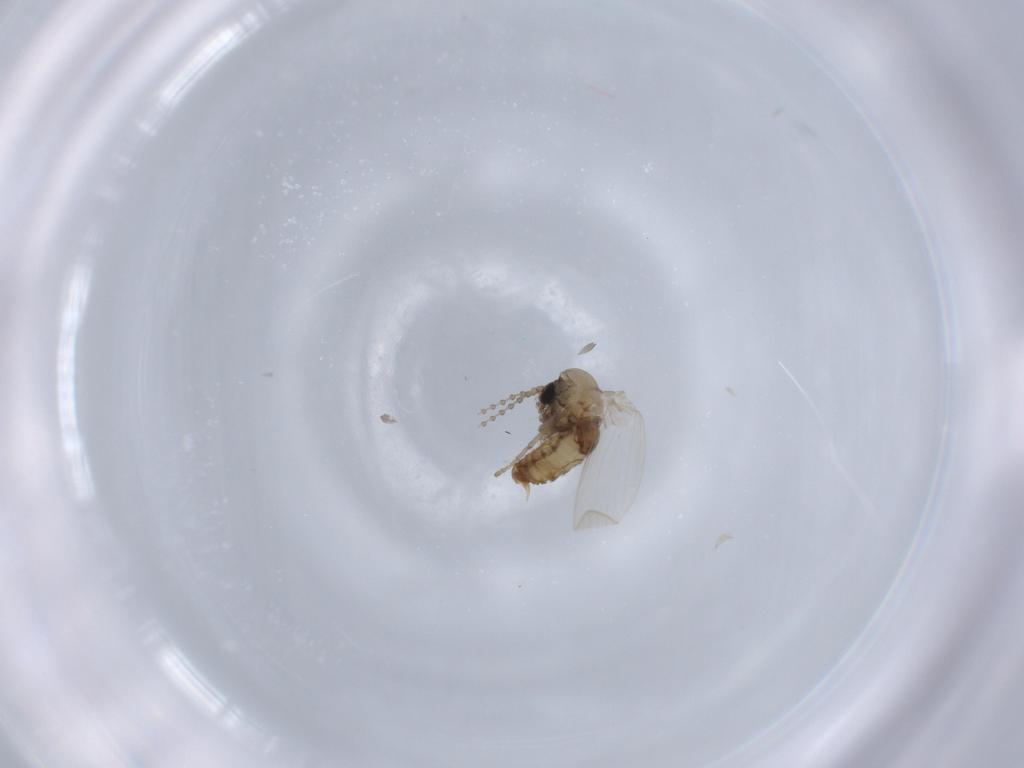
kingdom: Animalia
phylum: Arthropoda
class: Insecta
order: Diptera
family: Psychodidae
